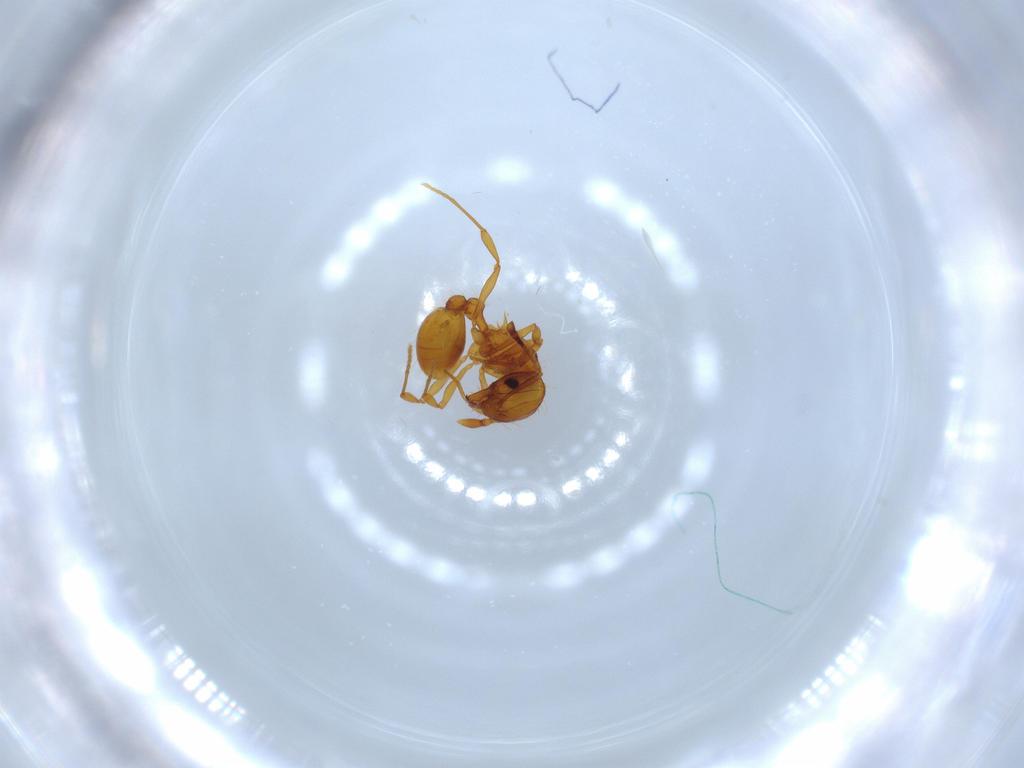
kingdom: Animalia
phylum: Arthropoda
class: Insecta
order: Hymenoptera
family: Formicidae
